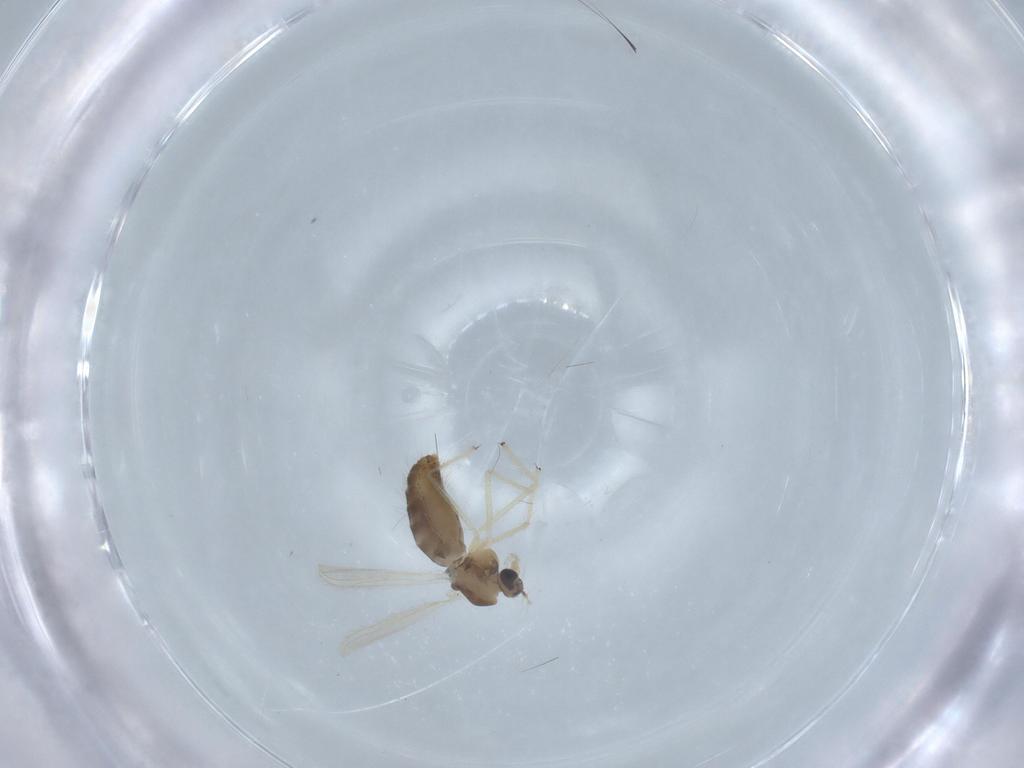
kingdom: Animalia
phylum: Arthropoda
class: Insecta
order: Diptera
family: Chironomidae
